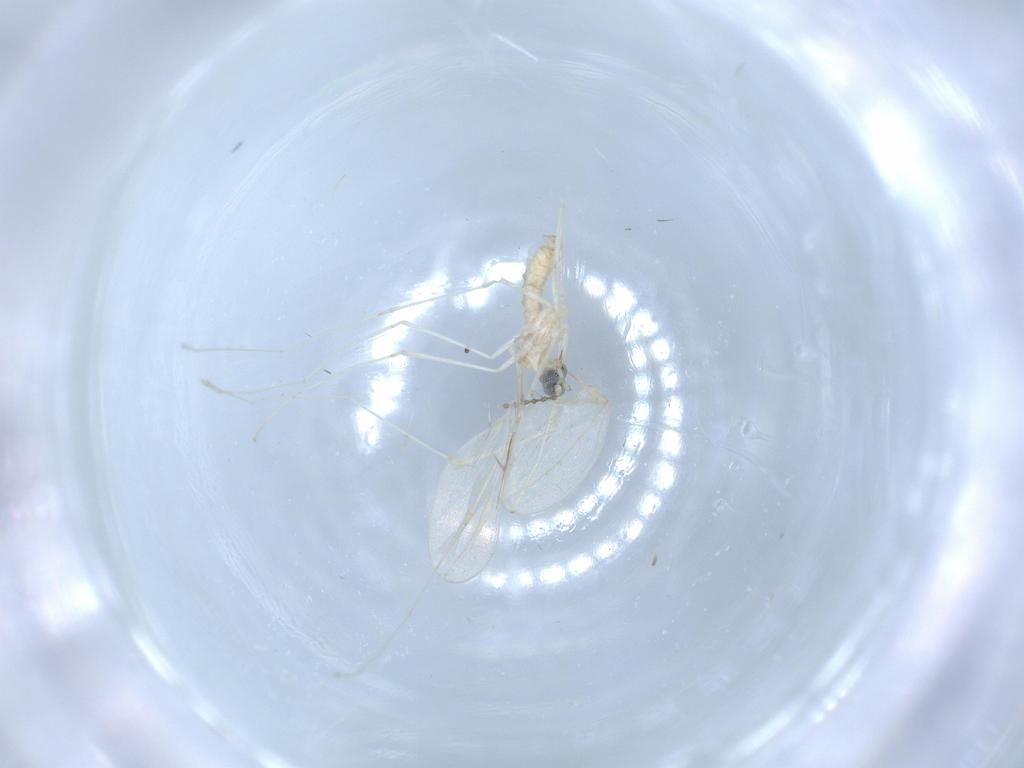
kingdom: Animalia
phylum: Arthropoda
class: Insecta
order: Diptera
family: Cecidomyiidae
